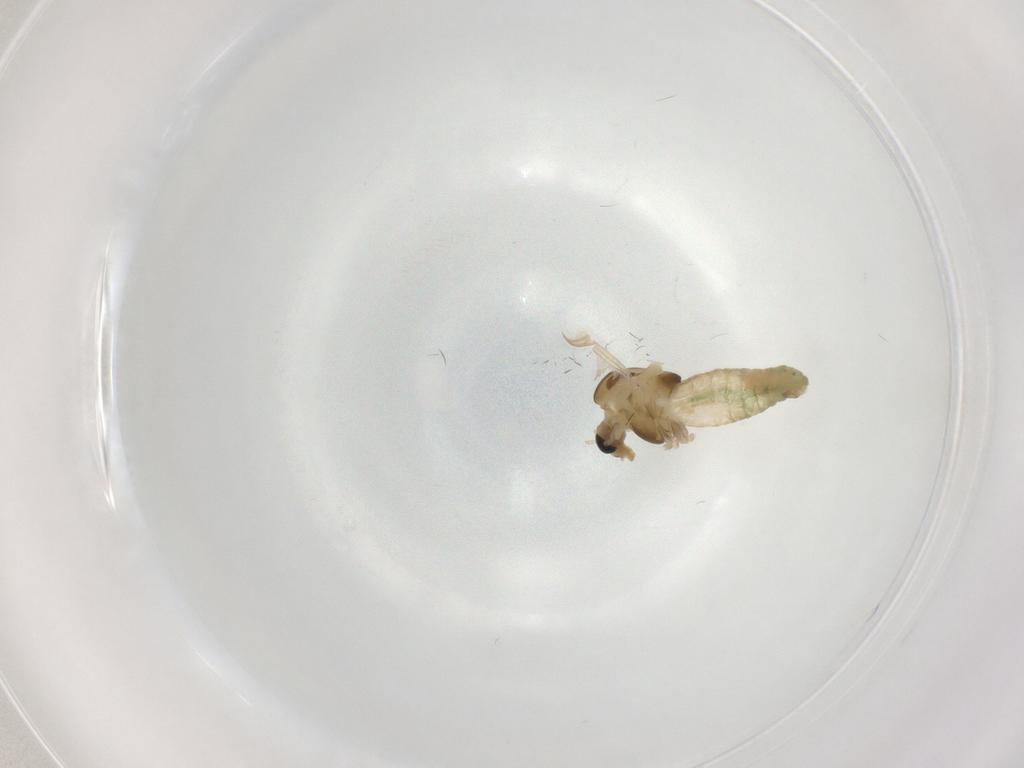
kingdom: Animalia
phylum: Arthropoda
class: Insecta
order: Diptera
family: Chironomidae
